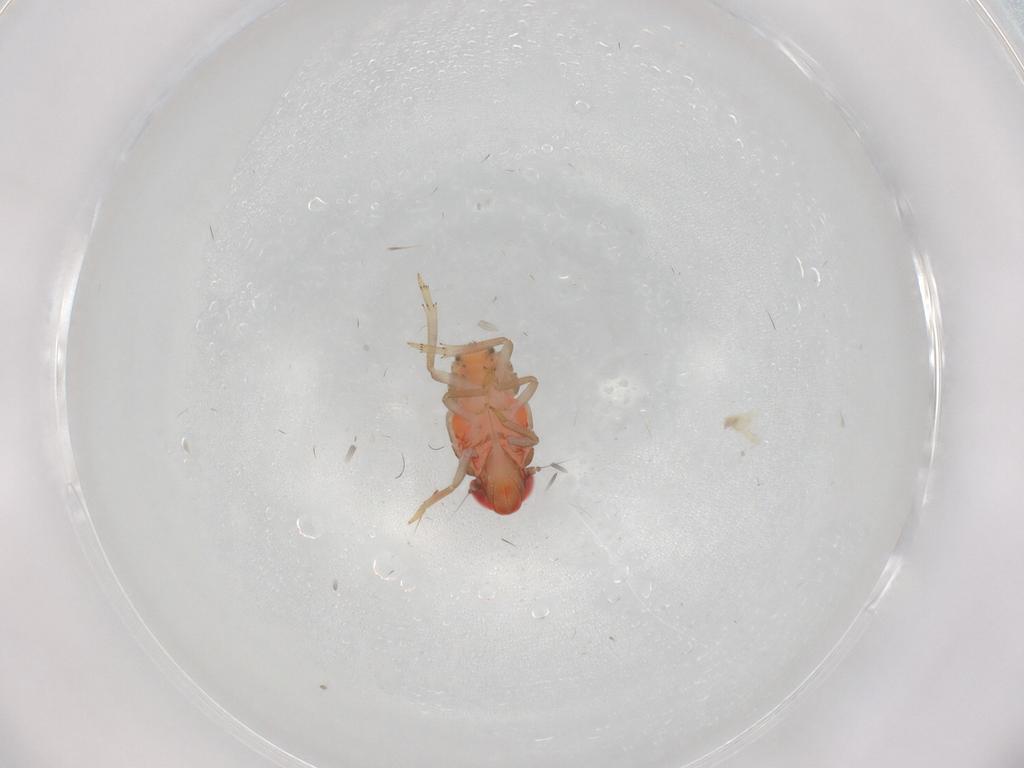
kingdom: Animalia
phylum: Arthropoda
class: Insecta
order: Hemiptera
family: Issidae
